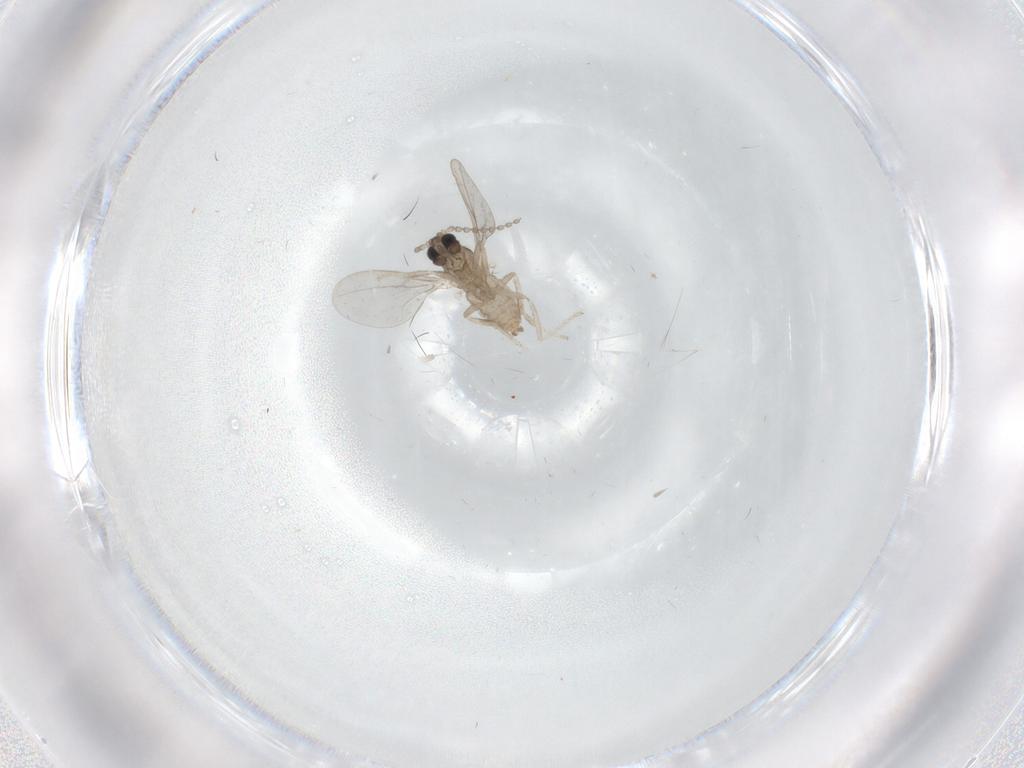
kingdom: Animalia
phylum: Arthropoda
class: Insecta
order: Diptera
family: Cecidomyiidae
